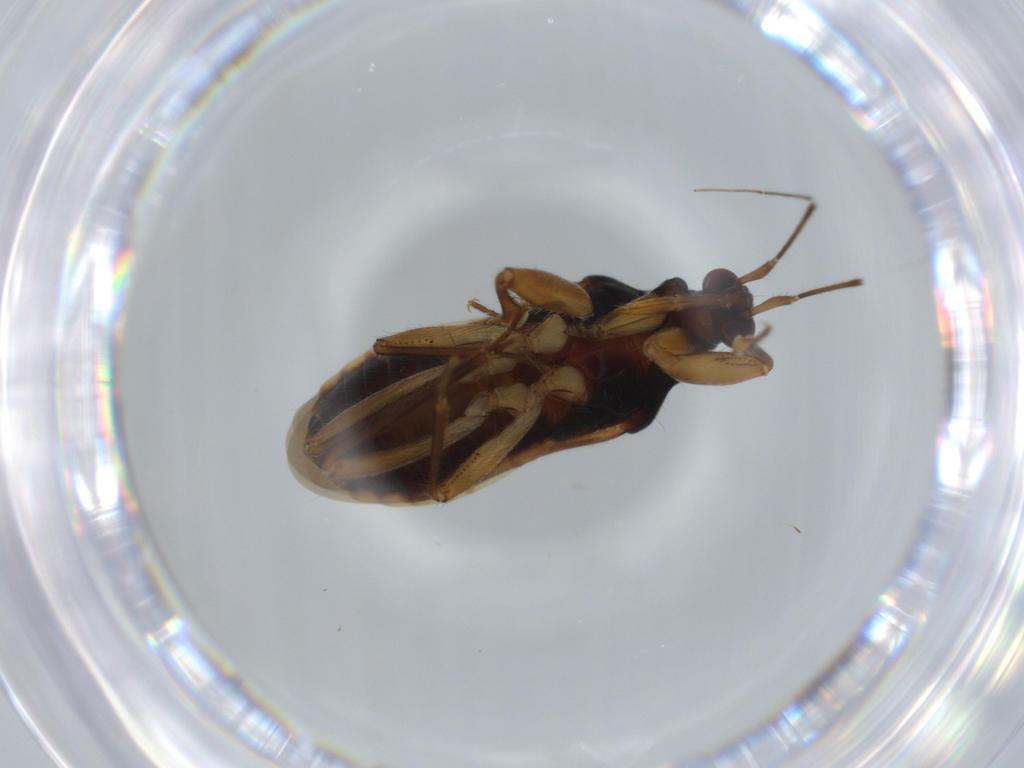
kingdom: Animalia
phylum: Arthropoda
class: Insecta
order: Hemiptera
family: Nabidae
